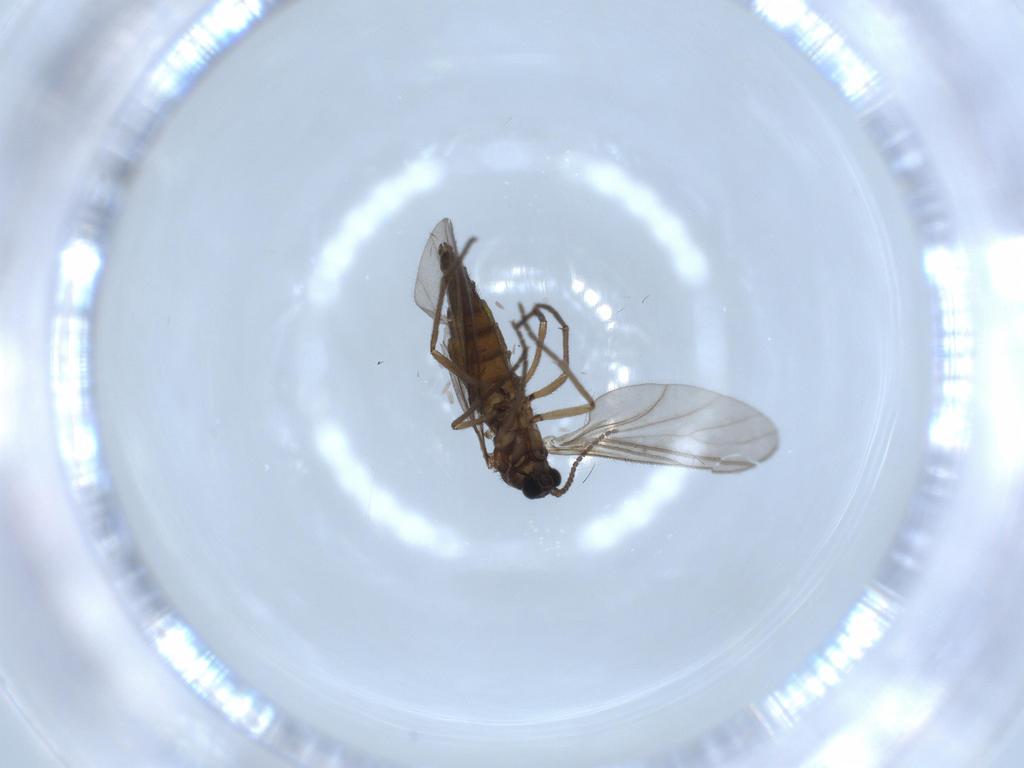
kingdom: Animalia
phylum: Arthropoda
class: Insecta
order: Diptera
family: Sciaridae
